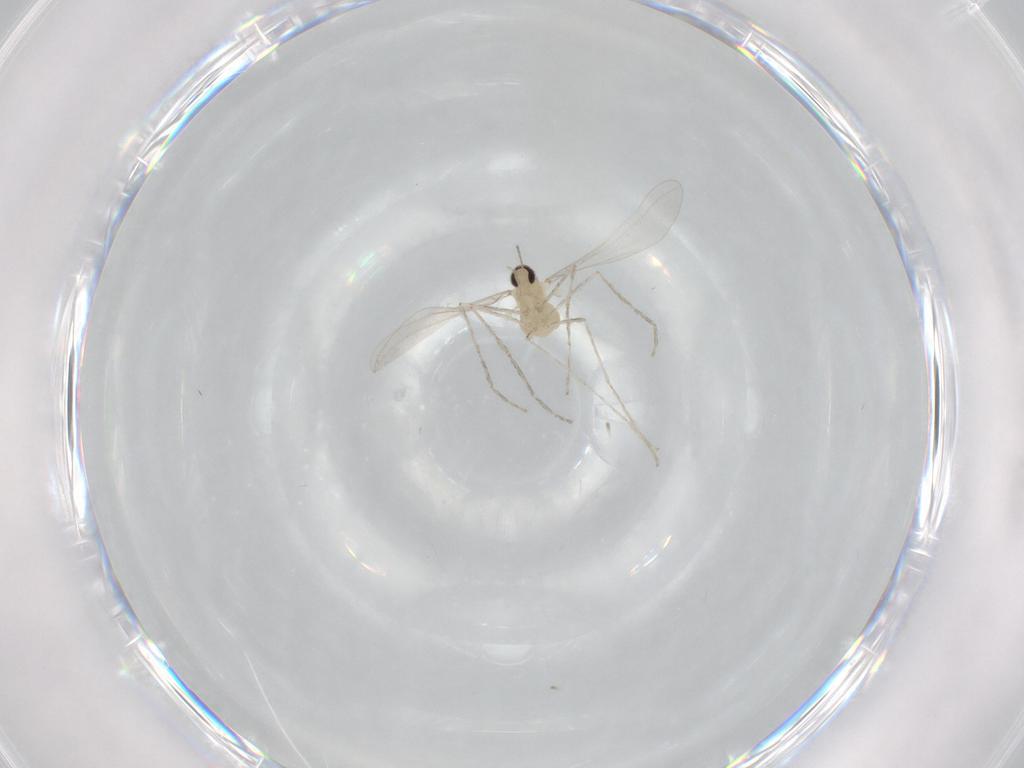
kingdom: Animalia
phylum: Arthropoda
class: Insecta
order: Diptera
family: Cecidomyiidae
